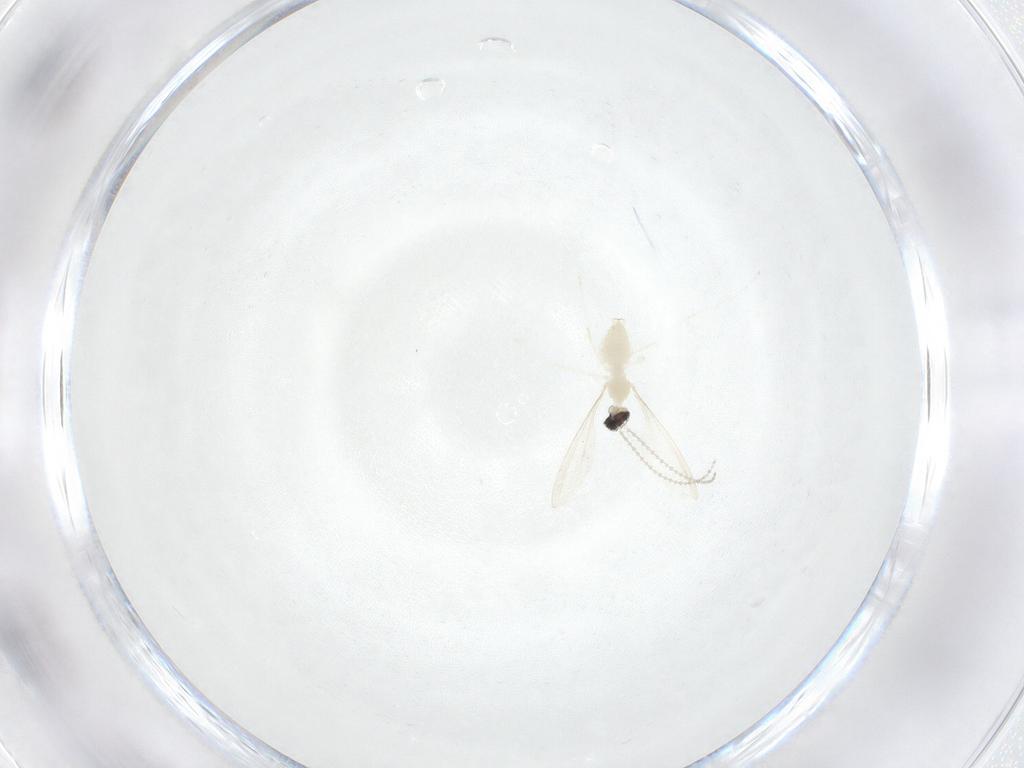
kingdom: Animalia
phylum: Arthropoda
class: Insecta
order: Diptera
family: Cecidomyiidae
